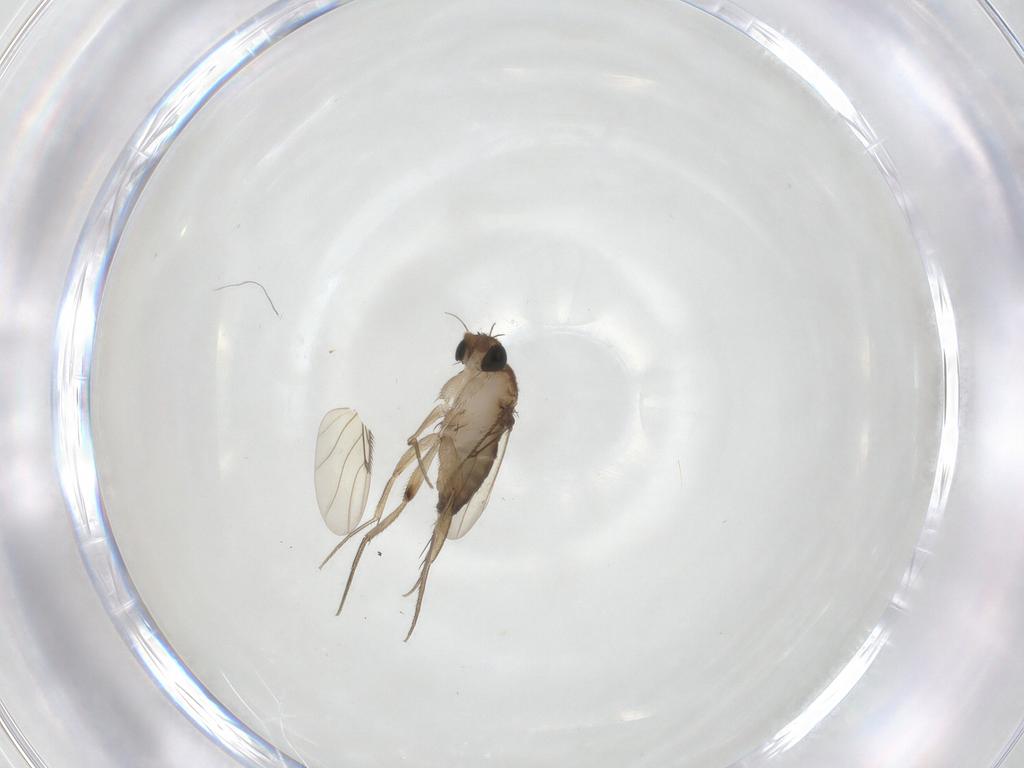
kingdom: Animalia
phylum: Arthropoda
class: Insecta
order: Diptera
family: Phoridae
